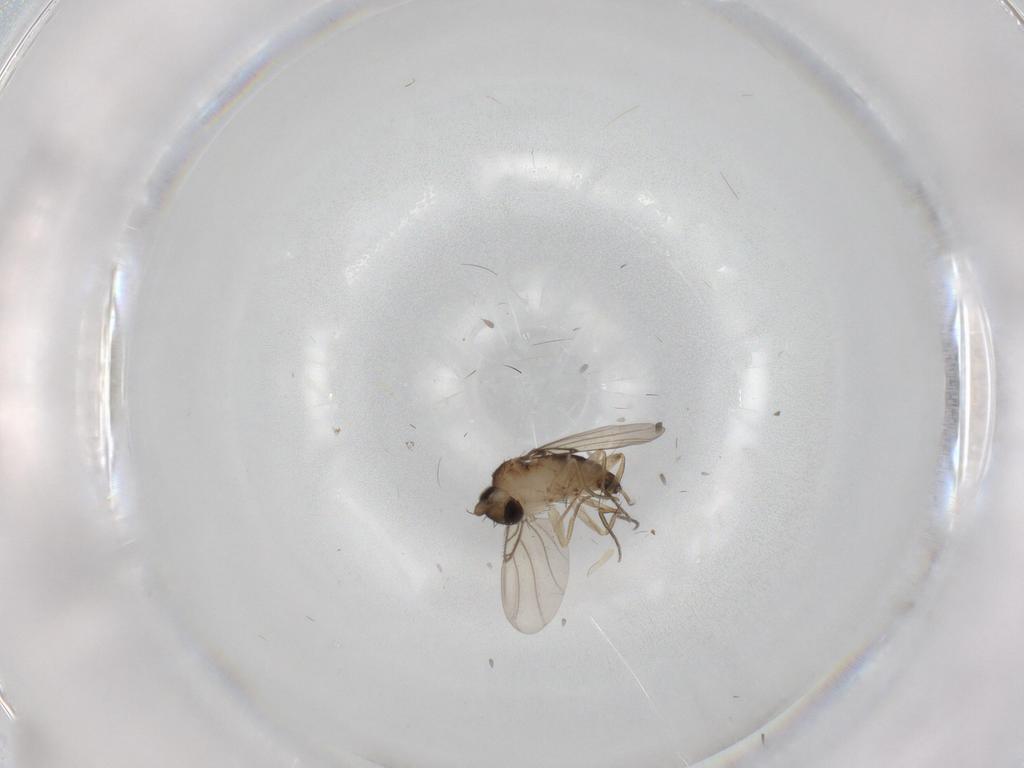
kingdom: Animalia
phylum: Arthropoda
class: Insecta
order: Diptera
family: Phoridae
